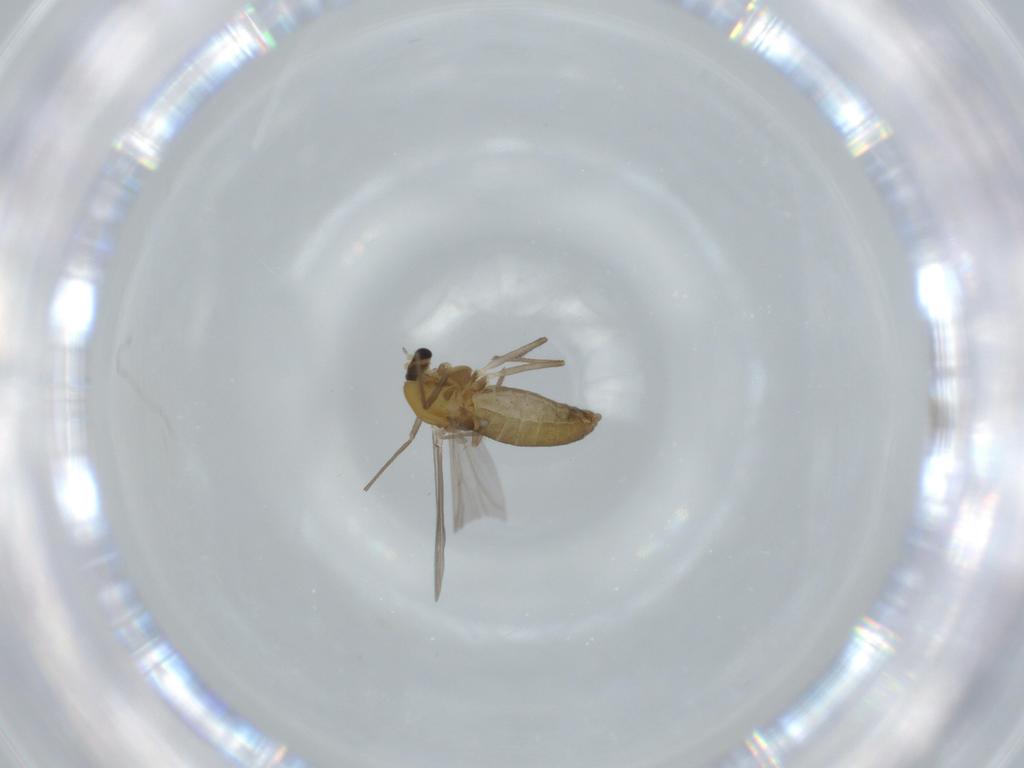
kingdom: Animalia
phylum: Arthropoda
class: Insecta
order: Diptera
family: Chironomidae
